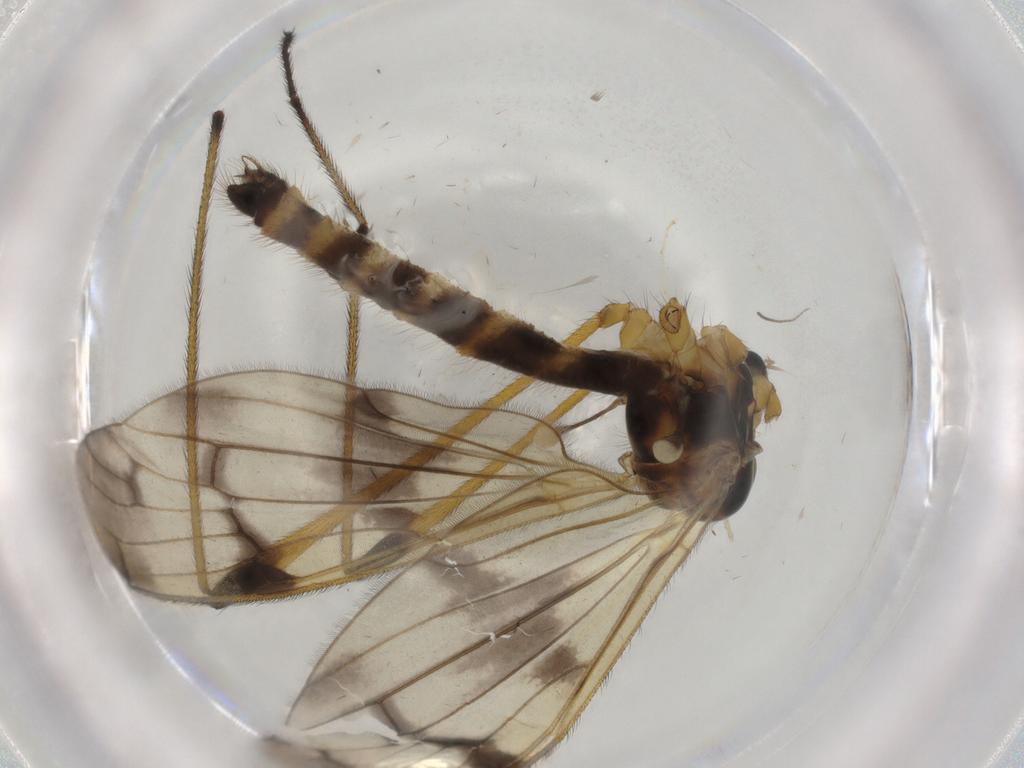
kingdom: Animalia
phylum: Arthropoda
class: Insecta
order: Diptera
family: Limoniidae
